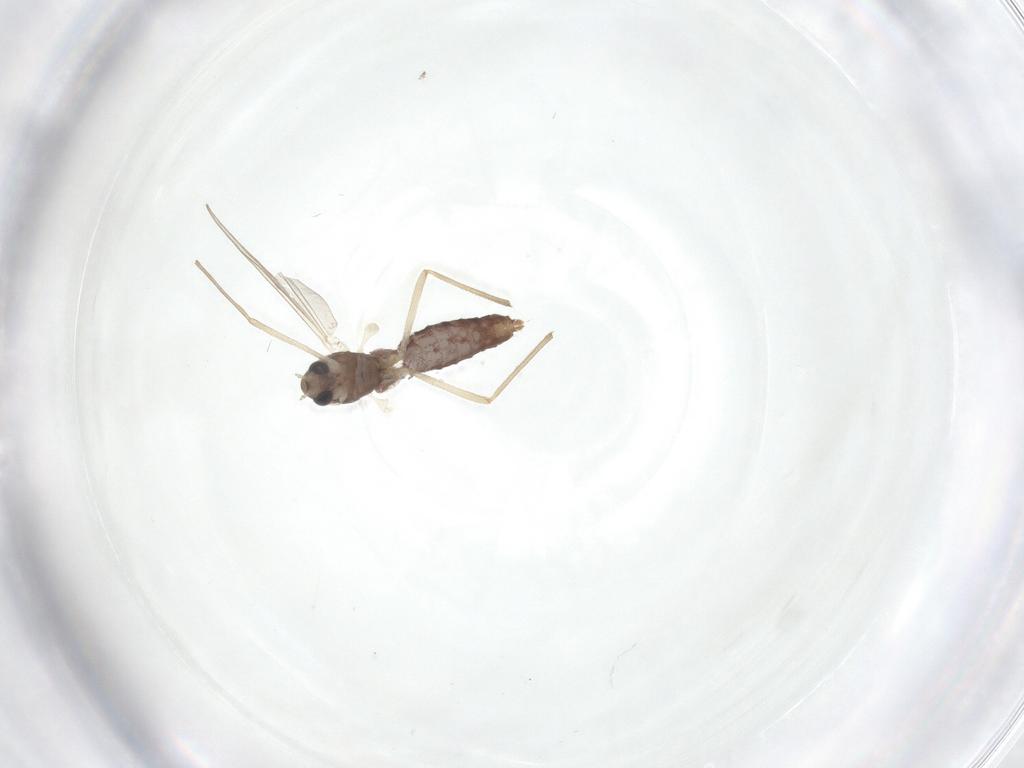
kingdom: Animalia
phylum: Arthropoda
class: Insecta
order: Diptera
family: Chironomidae
